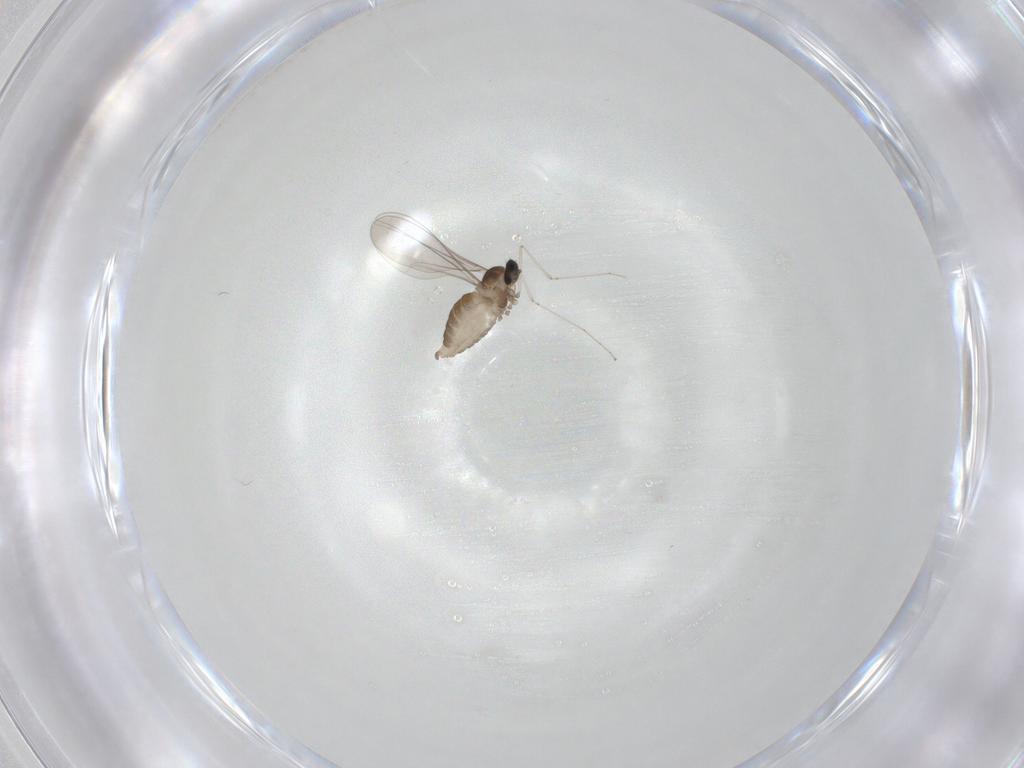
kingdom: Animalia
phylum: Arthropoda
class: Insecta
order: Diptera
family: Cecidomyiidae
